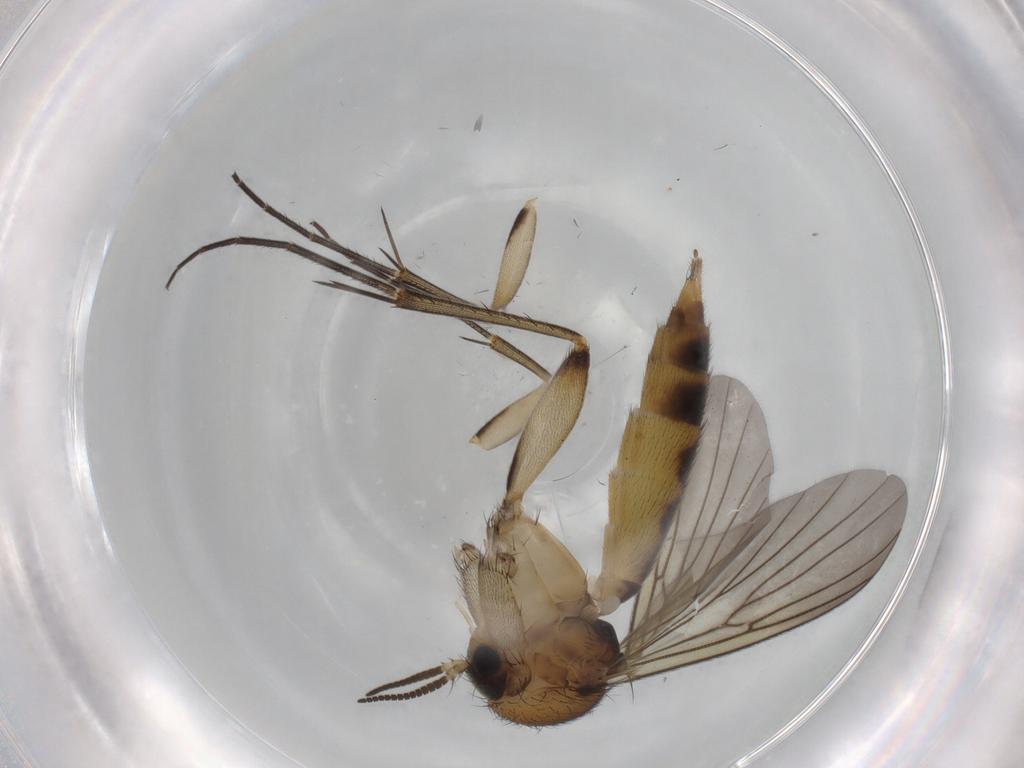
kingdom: Animalia
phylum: Arthropoda
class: Insecta
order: Diptera
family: Mycetophilidae
